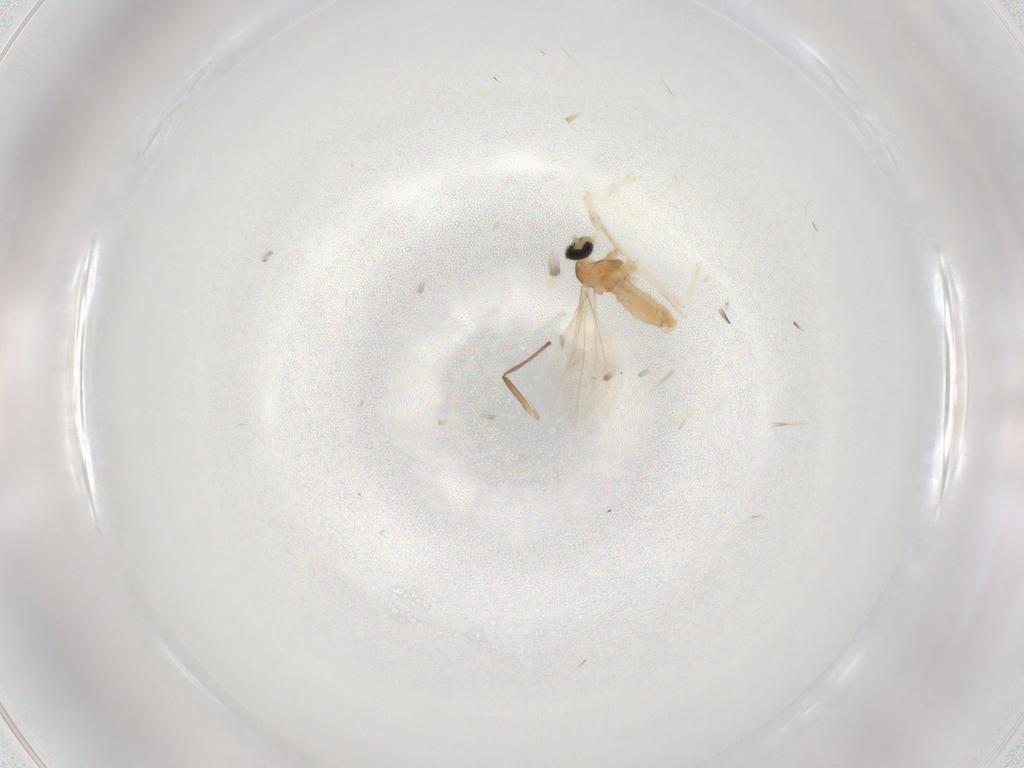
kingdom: Animalia
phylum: Arthropoda
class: Insecta
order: Diptera
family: Cecidomyiidae
